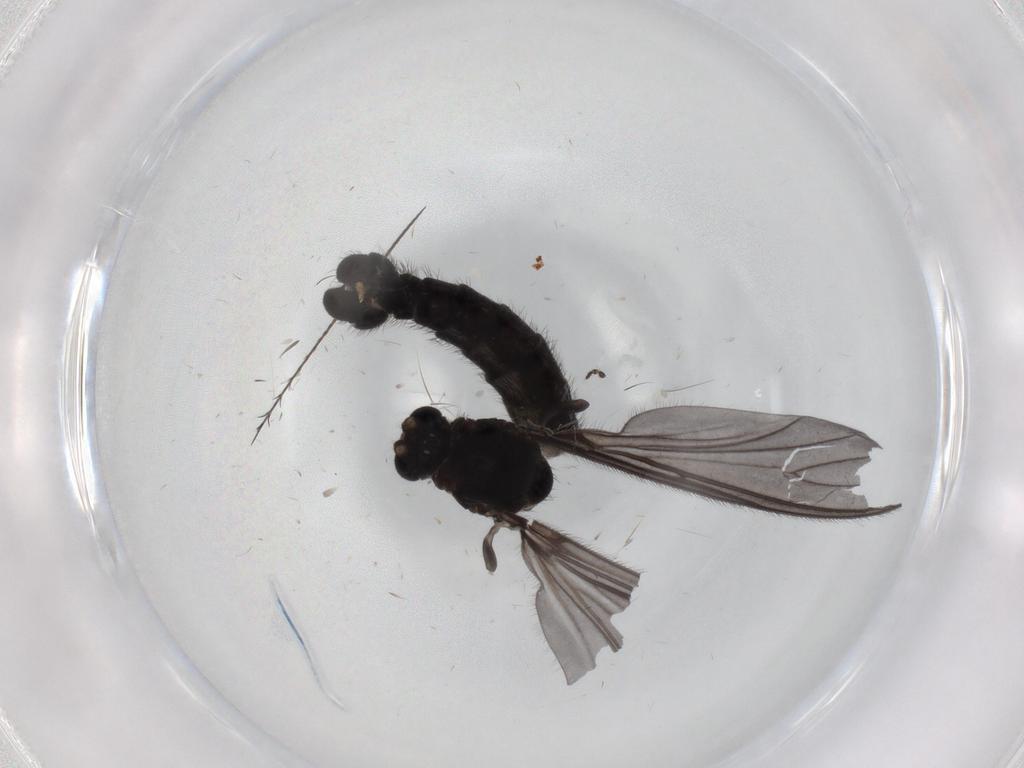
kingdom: Animalia
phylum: Arthropoda
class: Insecta
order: Diptera
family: Sciaridae
